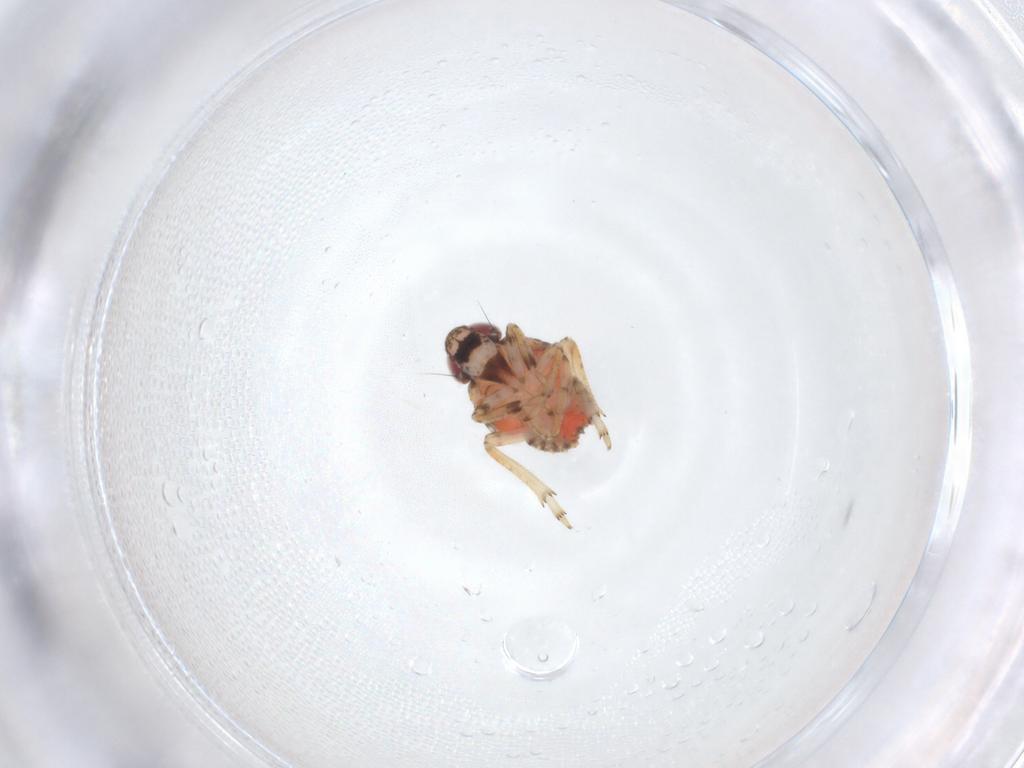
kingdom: Animalia
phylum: Arthropoda
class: Insecta
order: Hemiptera
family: Issidae
